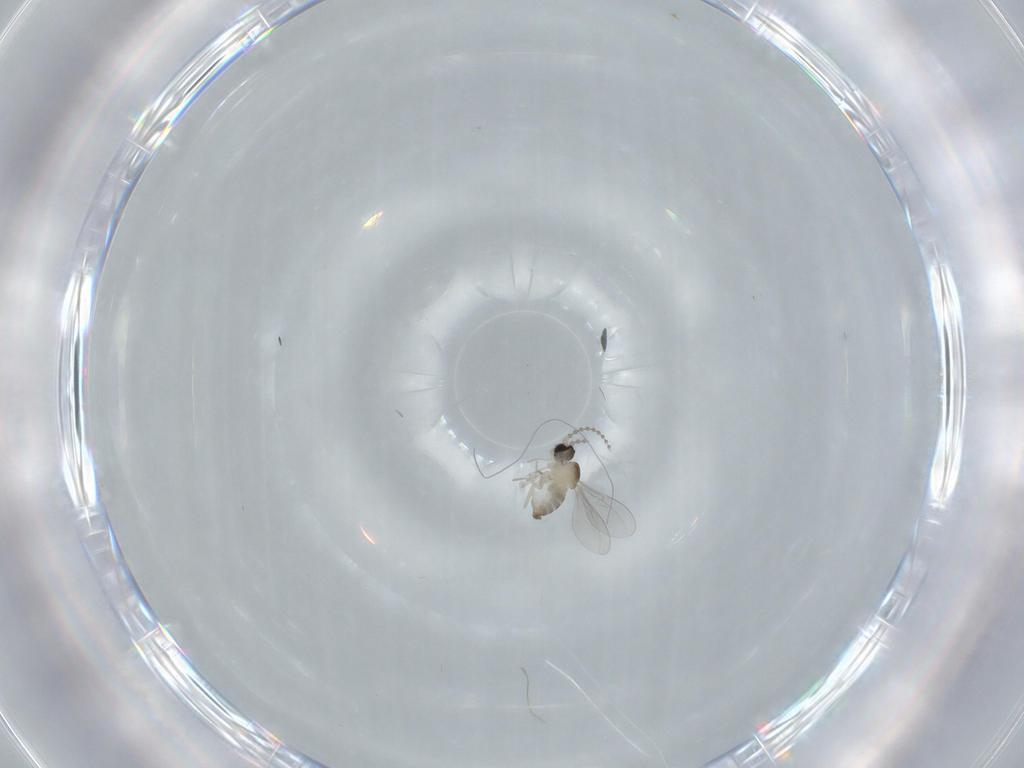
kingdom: Animalia
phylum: Arthropoda
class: Insecta
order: Diptera
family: Cecidomyiidae
